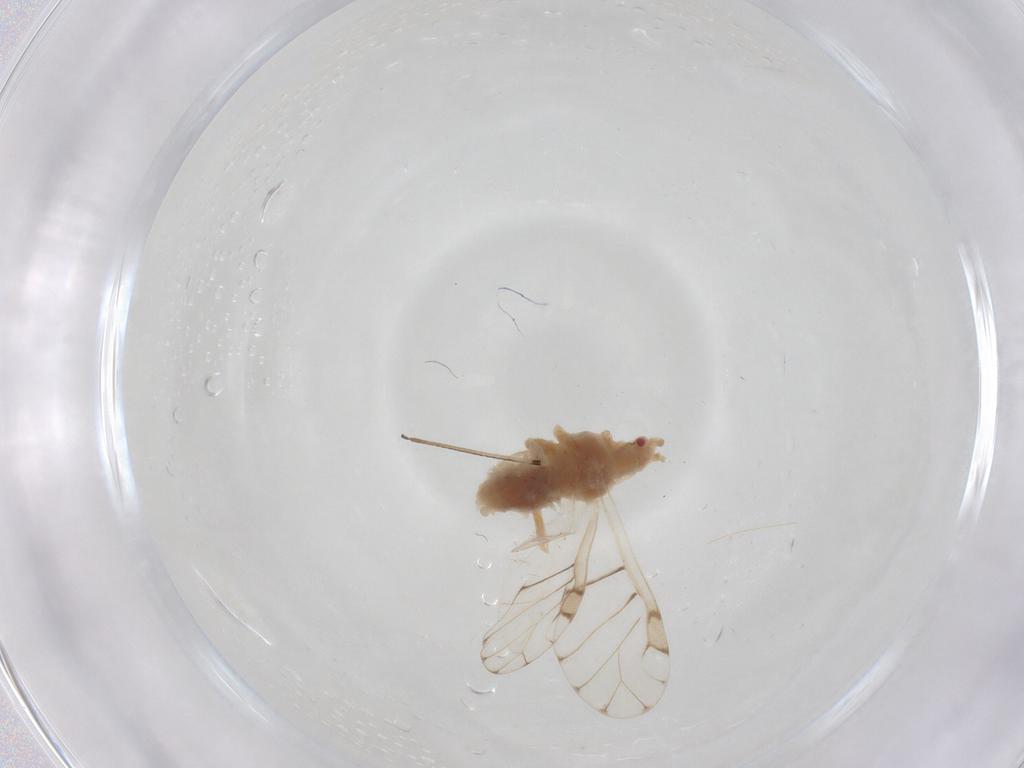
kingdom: Animalia
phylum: Arthropoda
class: Insecta
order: Hemiptera
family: Aphididae
